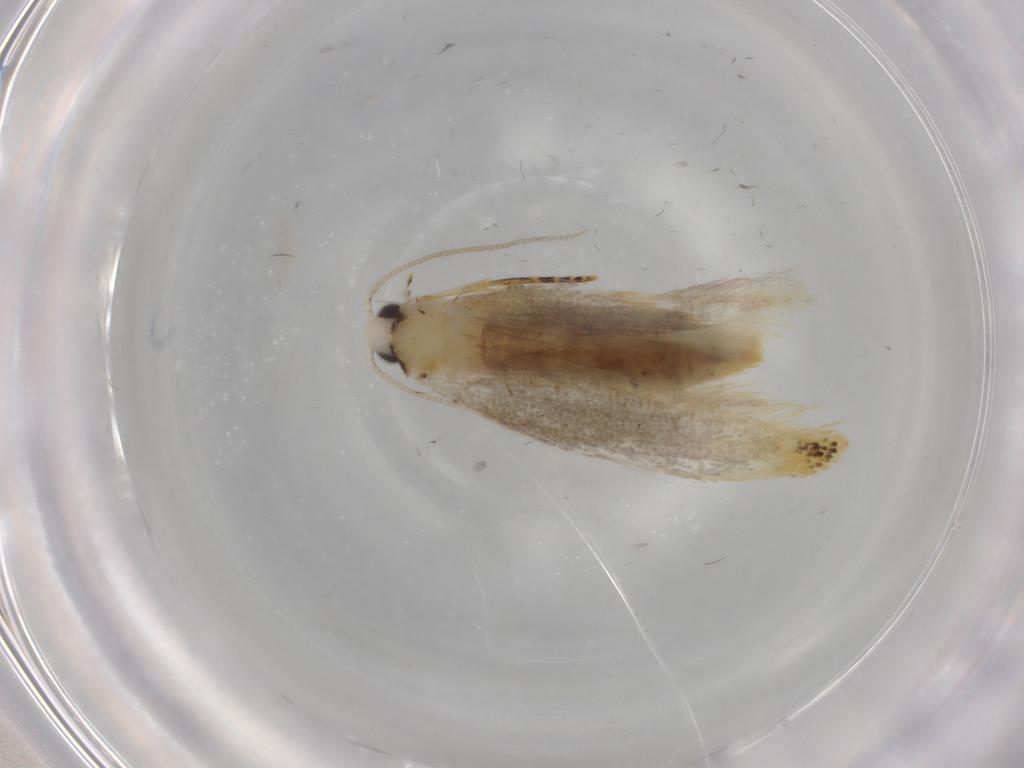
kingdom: Animalia
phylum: Arthropoda
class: Insecta
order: Lepidoptera
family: Tineidae
